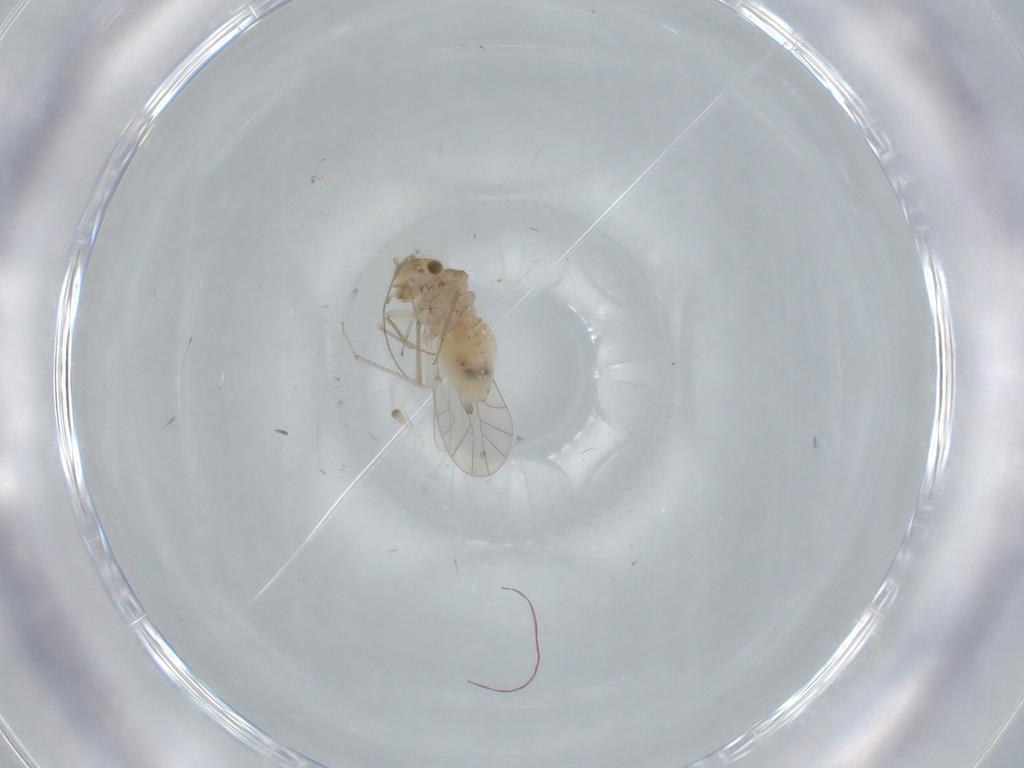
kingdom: Animalia
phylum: Arthropoda
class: Insecta
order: Psocodea
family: Lachesillidae
